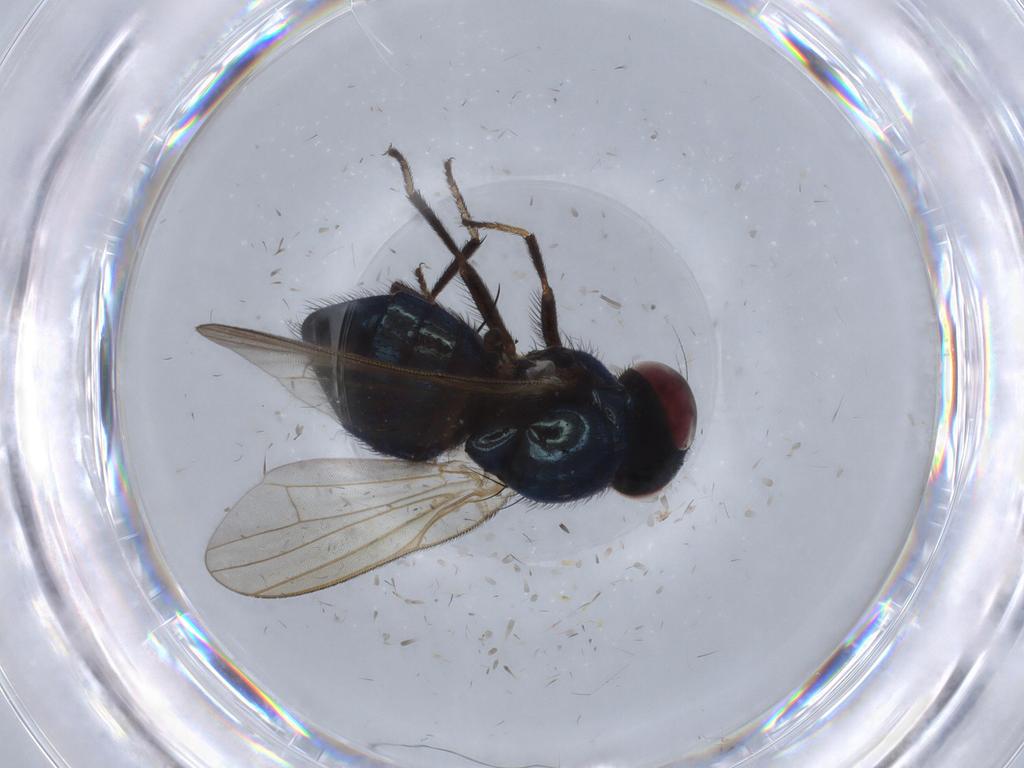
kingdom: Animalia
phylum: Arthropoda
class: Insecta
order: Diptera
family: Lonchaeidae
